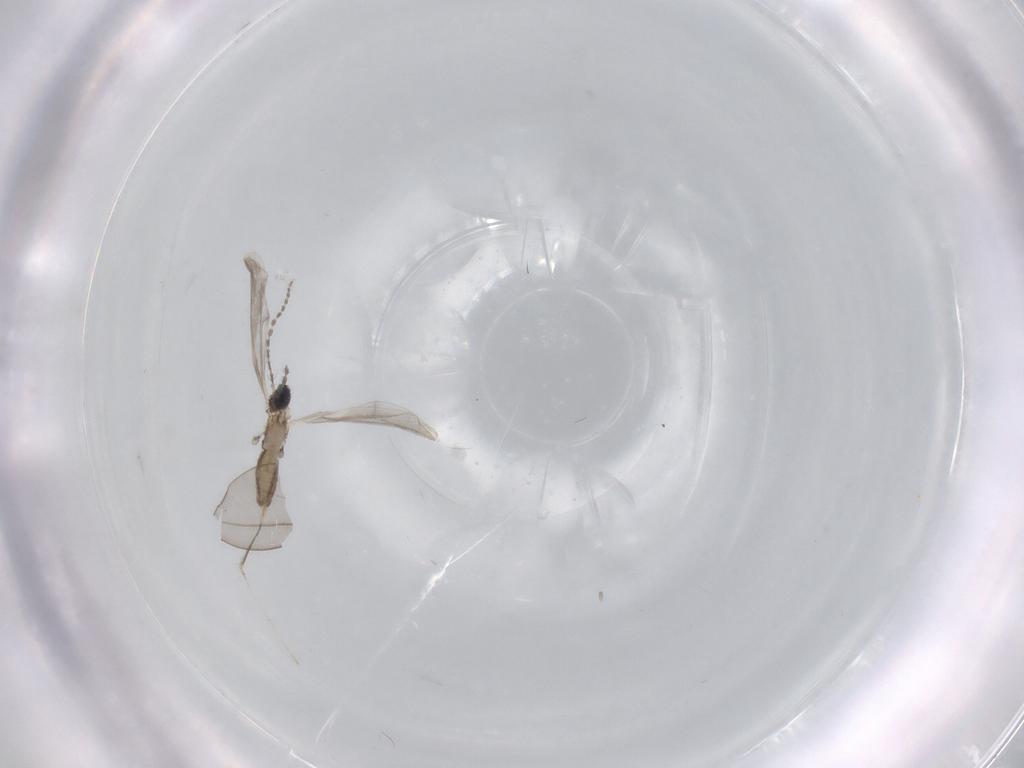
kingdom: Animalia
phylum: Arthropoda
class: Insecta
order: Diptera
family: Cecidomyiidae
